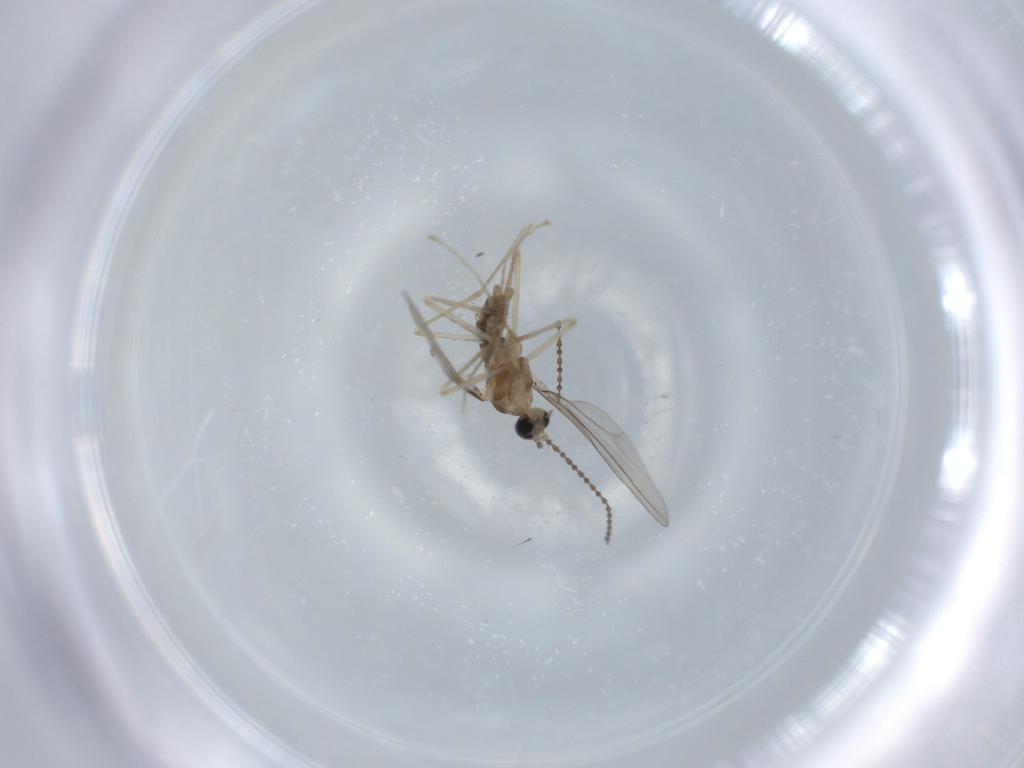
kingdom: Animalia
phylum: Arthropoda
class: Insecta
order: Diptera
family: Cecidomyiidae
